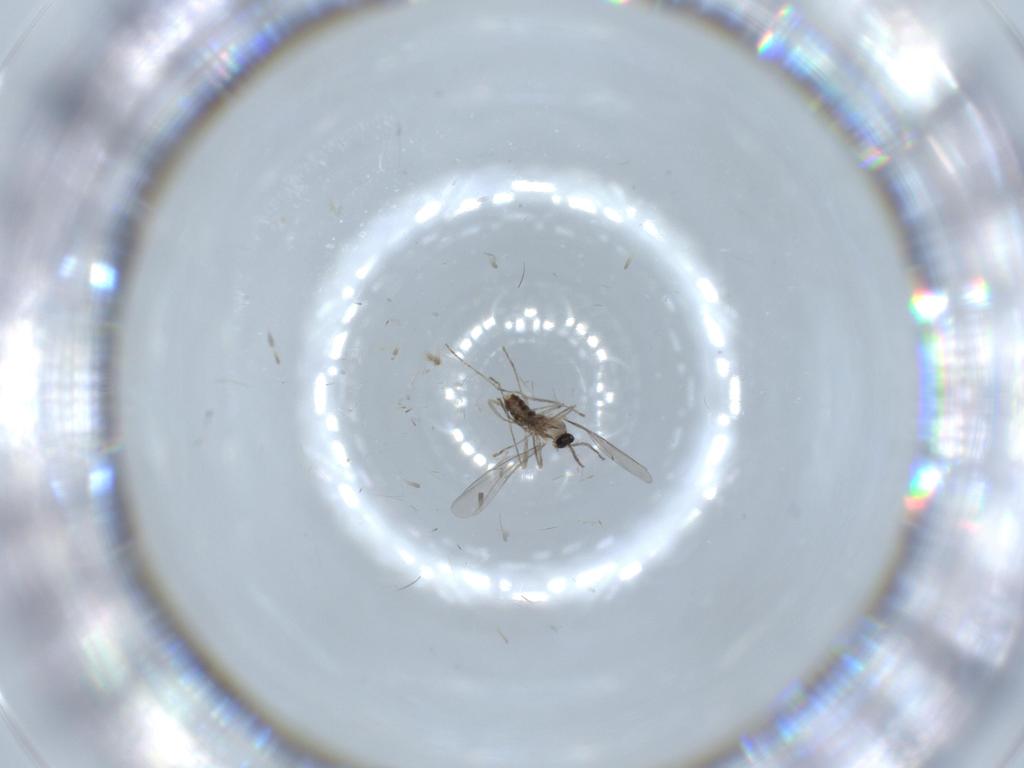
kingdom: Animalia
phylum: Arthropoda
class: Insecta
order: Diptera
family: Cecidomyiidae
